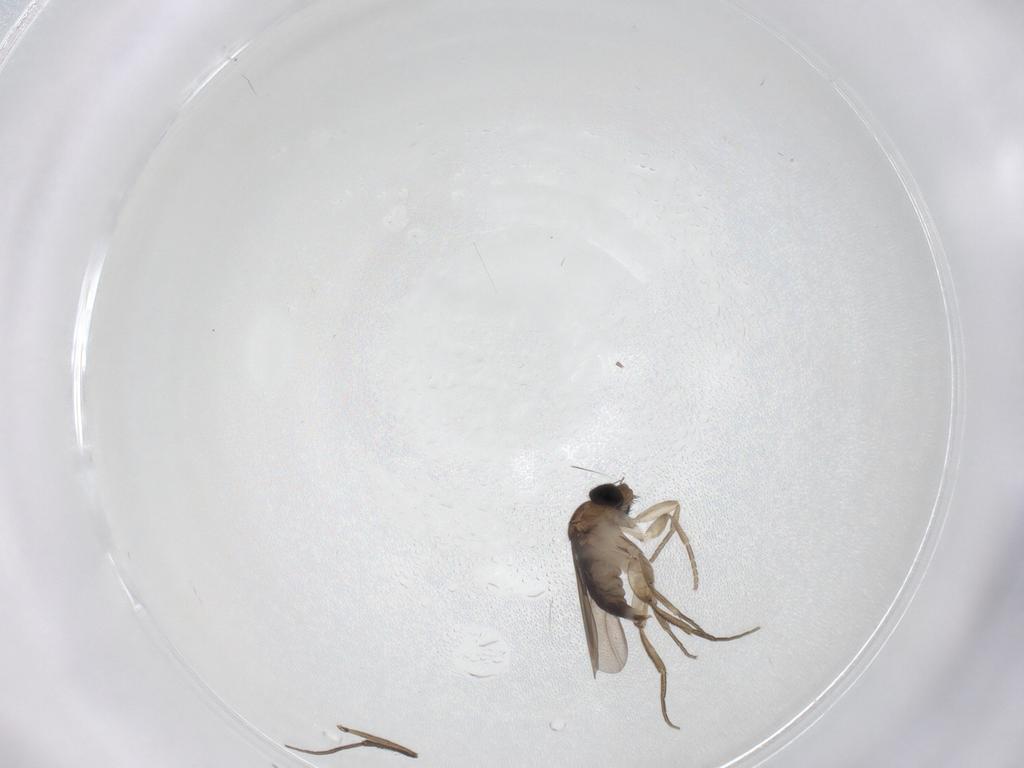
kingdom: Animalia
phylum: Arthropoda
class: Insecta
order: Diptera
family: Phoridae
